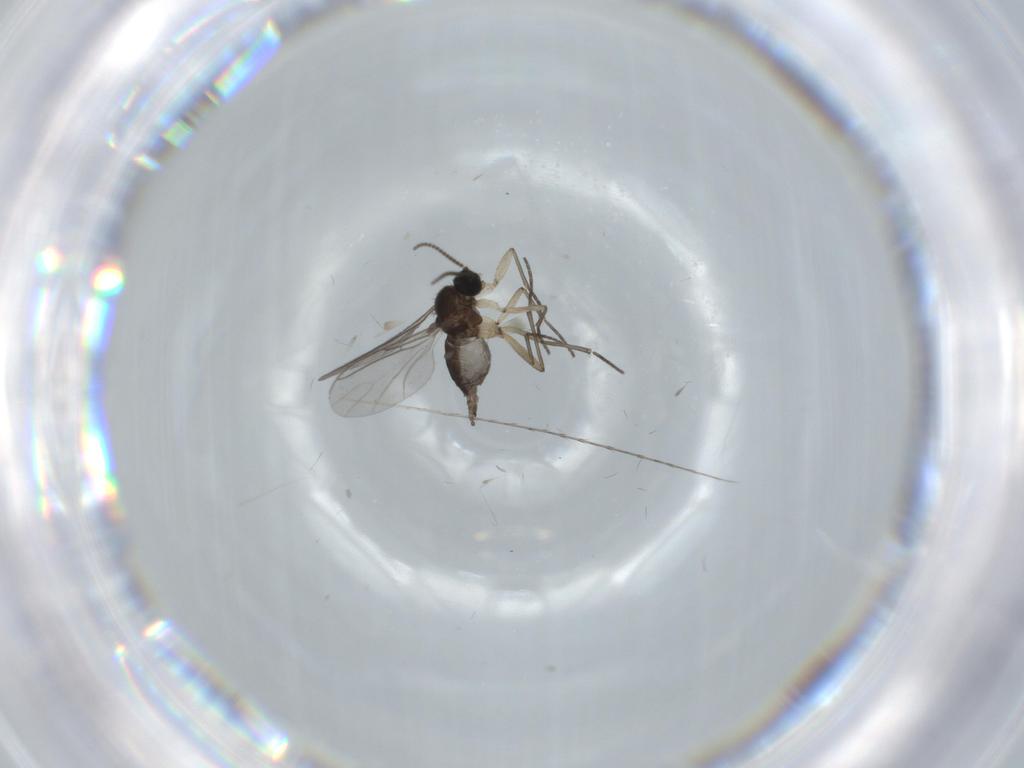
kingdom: Animalia
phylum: Arthropoda
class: Insecta
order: Diptera
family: Sciaridae
